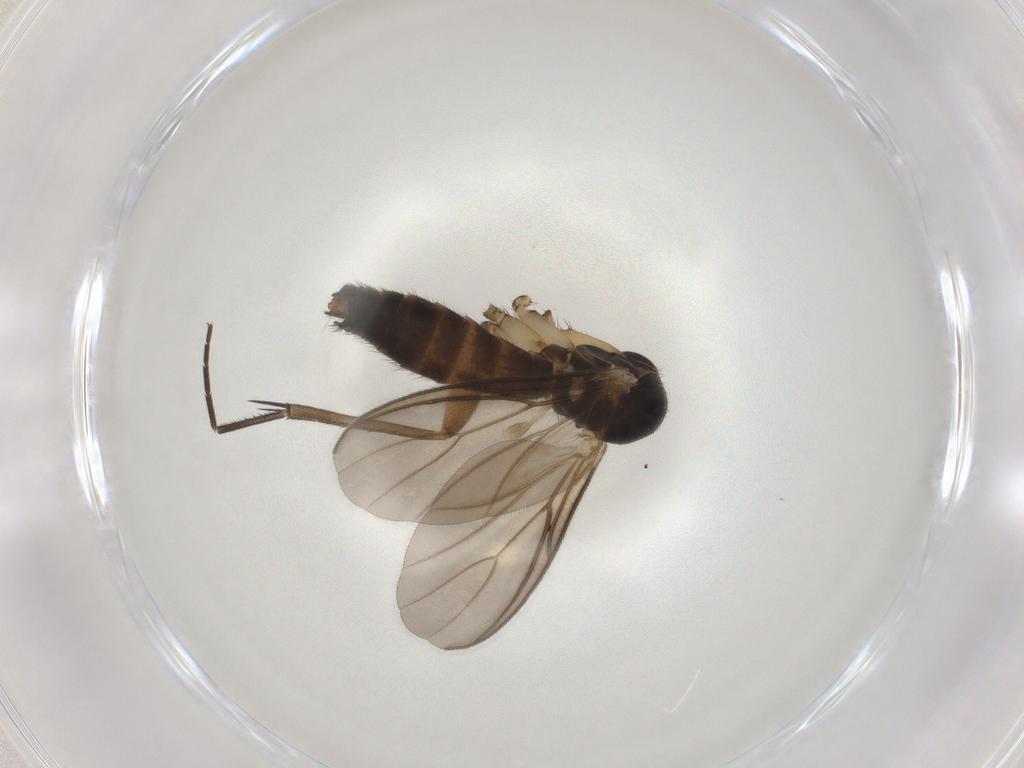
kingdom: Animalia
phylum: Arthropoda
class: Insecta
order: Diptera
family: Mycetophilidae
